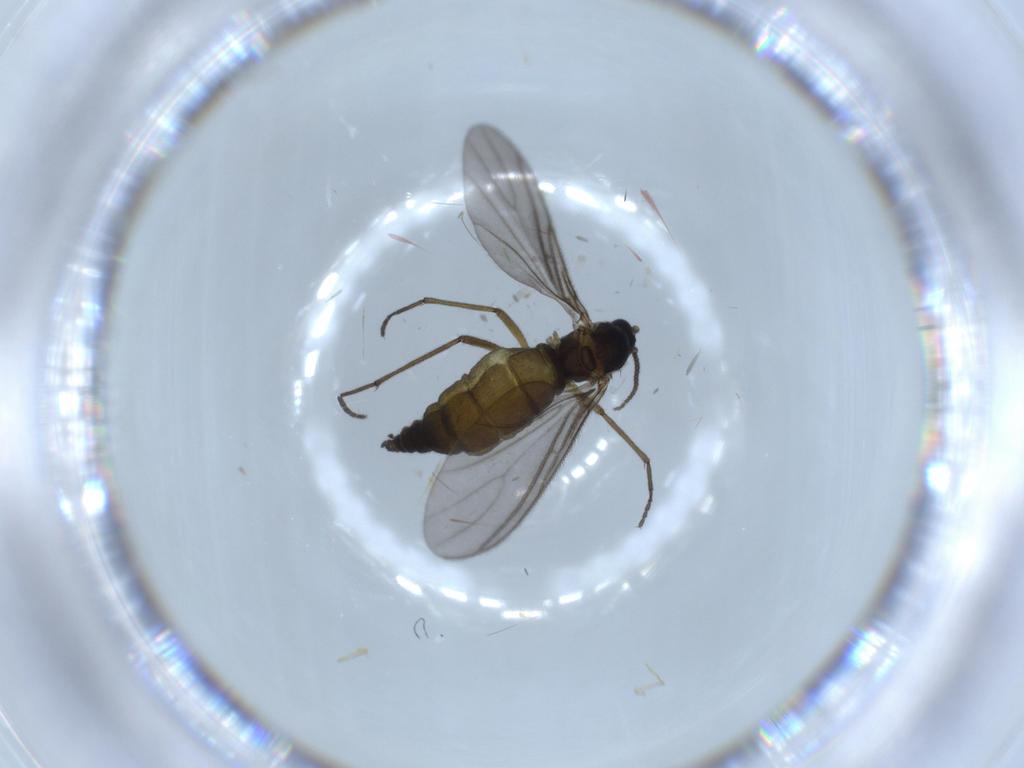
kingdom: Animalia
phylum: Arthropoda
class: Insecta
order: Diptera
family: Sciaridae
